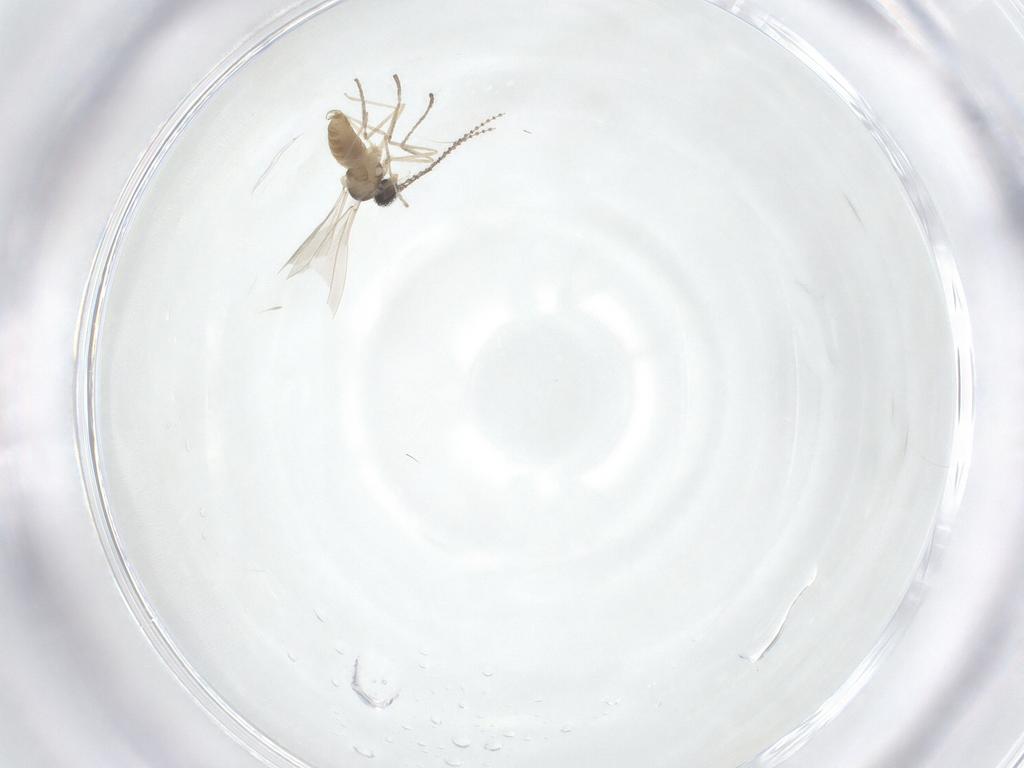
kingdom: Animalia
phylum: Arthropoda
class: Insecta
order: Diptera
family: Cecidomyiidae
